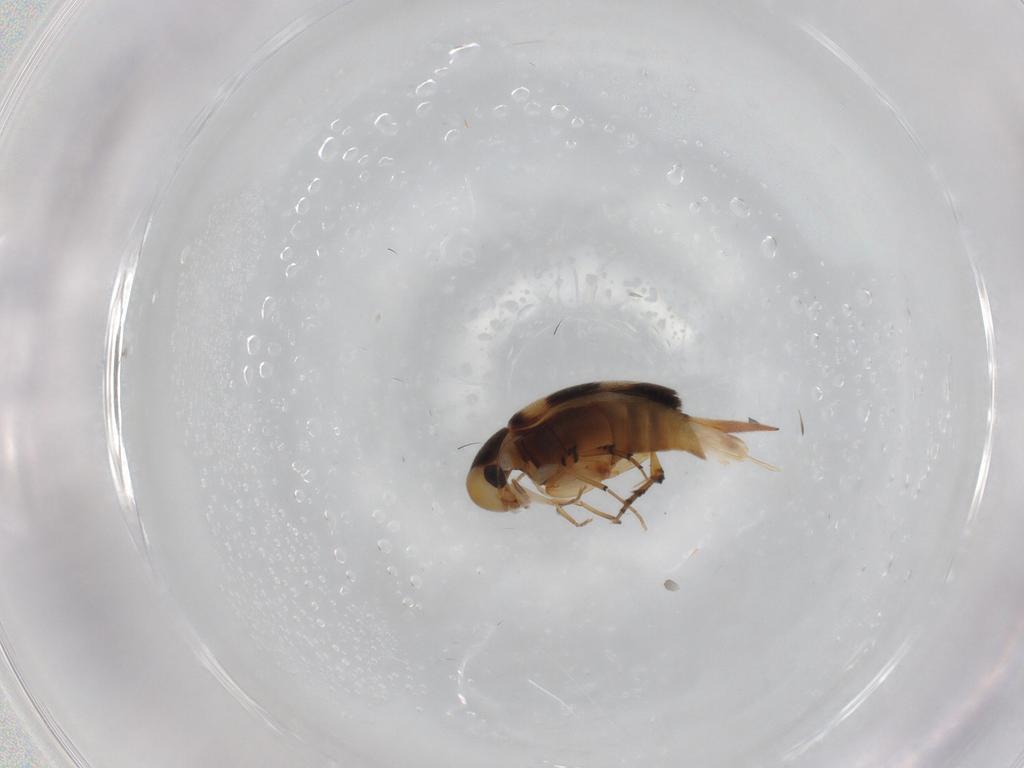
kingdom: Animalia
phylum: Arthropoda
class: Insecta
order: Coleoptera
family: Mordellidae
